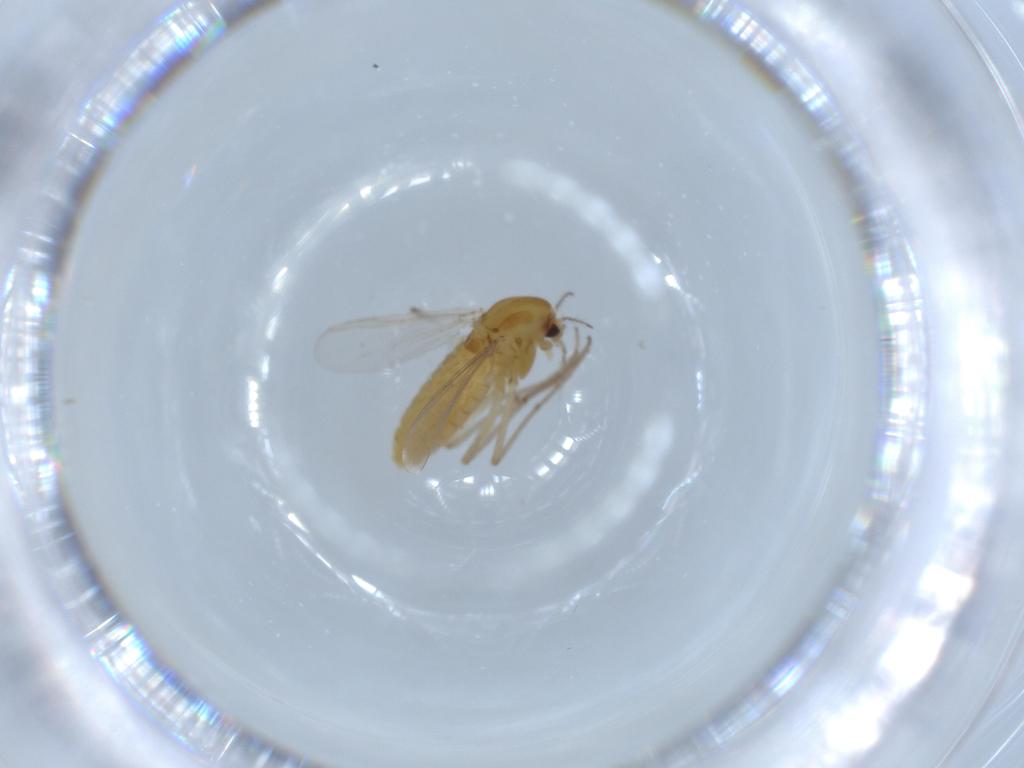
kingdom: Animalia
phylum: Arthropoda
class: Insecta
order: Diptera
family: Chironomidae
